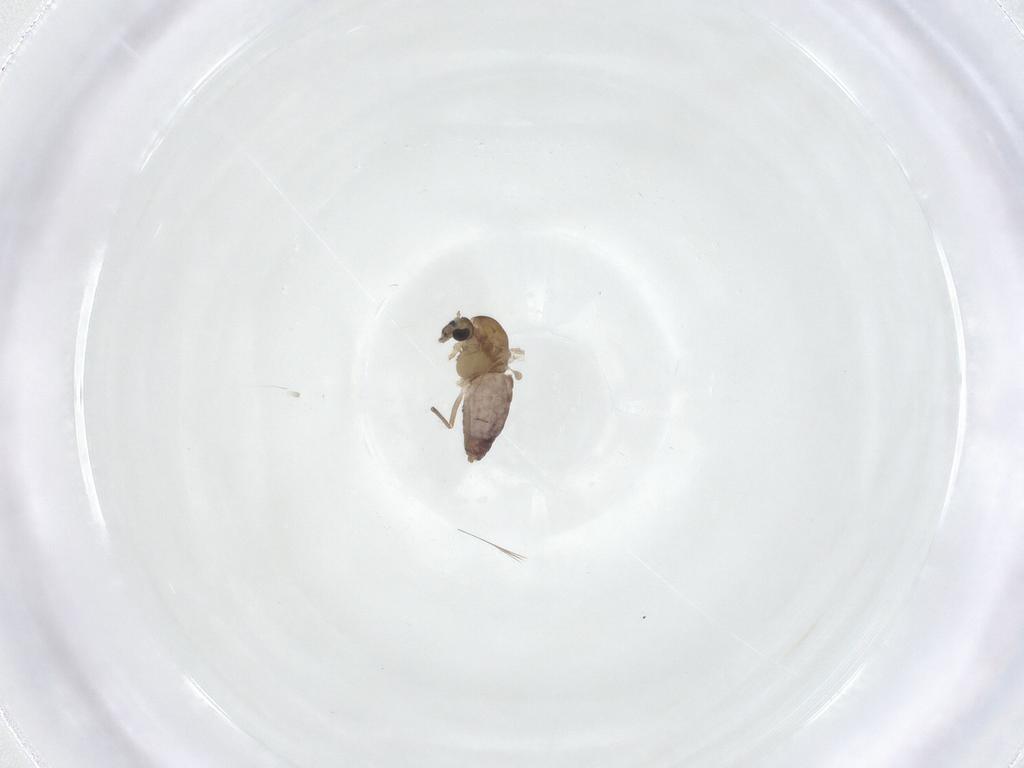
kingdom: Animalia
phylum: Arthropoda
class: Insecta
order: Diptera
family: Chironomidae
